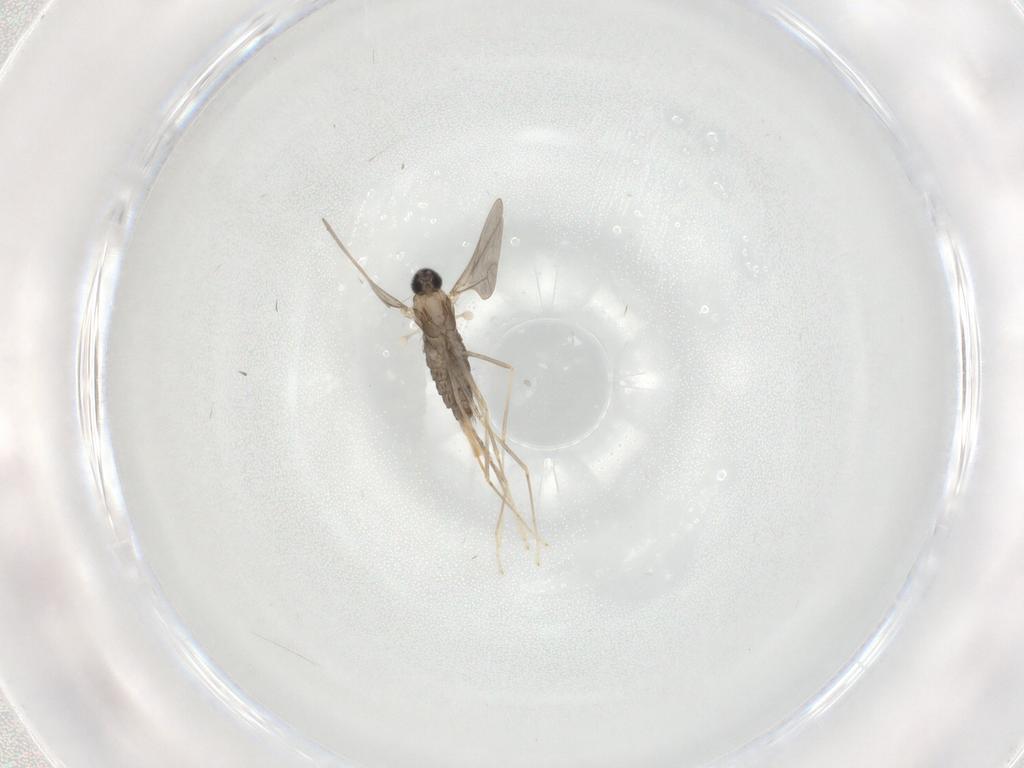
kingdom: Animalia
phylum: Arthropoda
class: Insecta
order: Diptera
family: Cecidomyiidae
